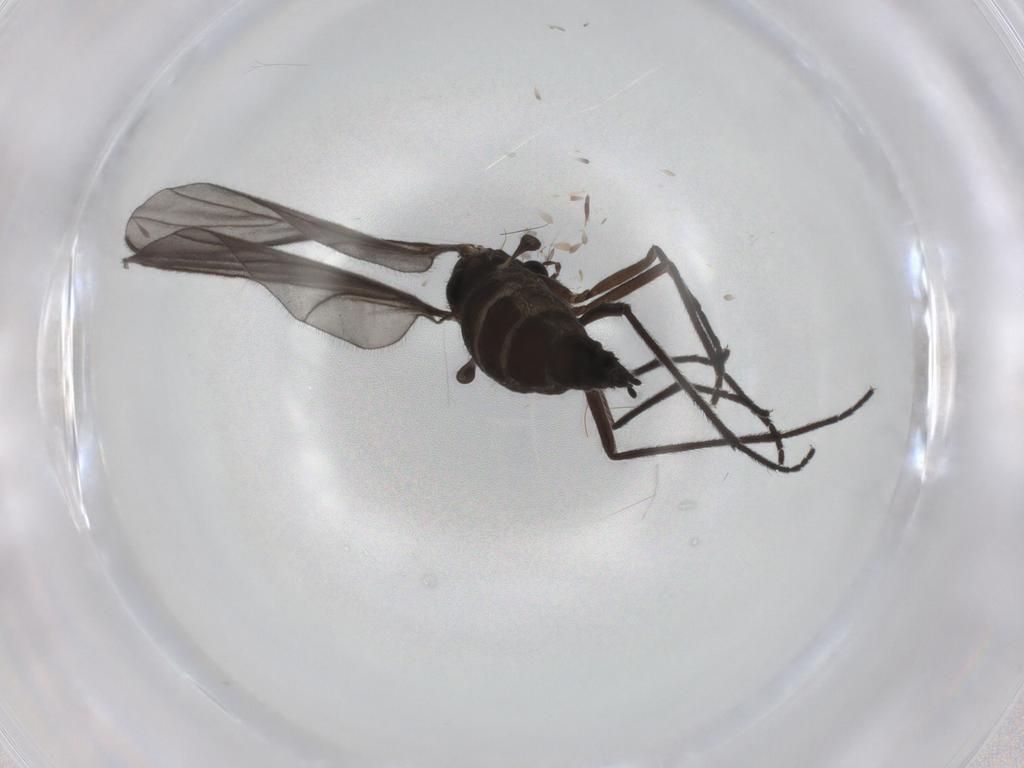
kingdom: Animalia
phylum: Arthropoda
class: Insecta
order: Diptera
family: Sciaridae
